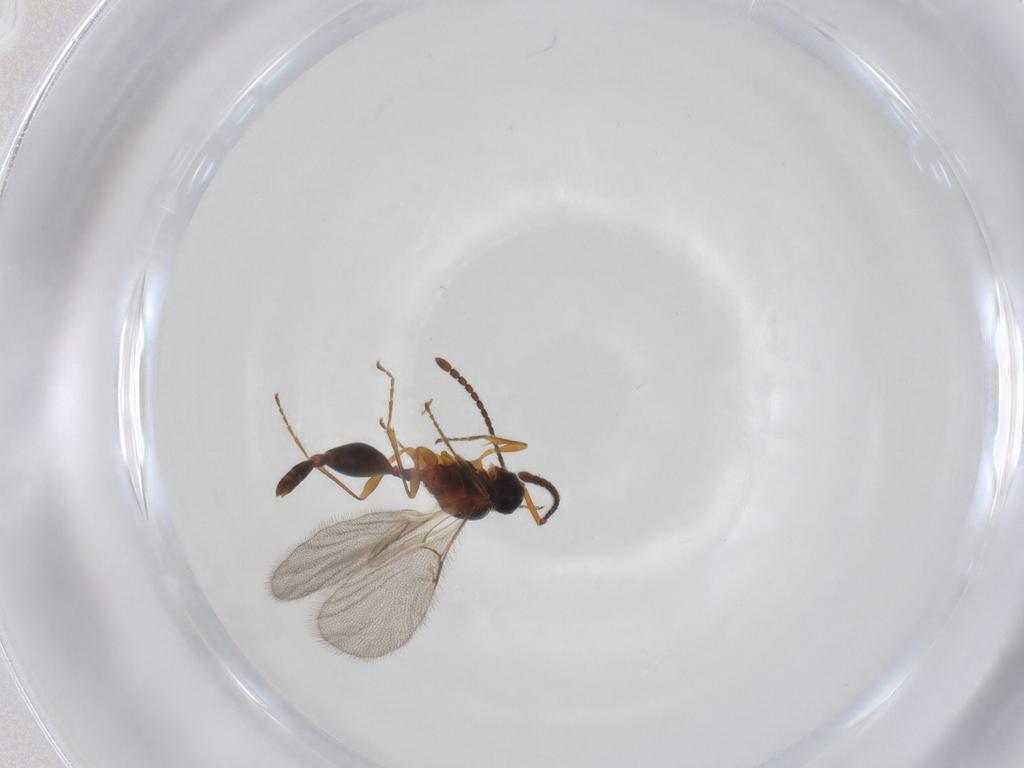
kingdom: Animalia
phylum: Arthropoda
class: Insecta
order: Hymenoptera
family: Diapriidae
